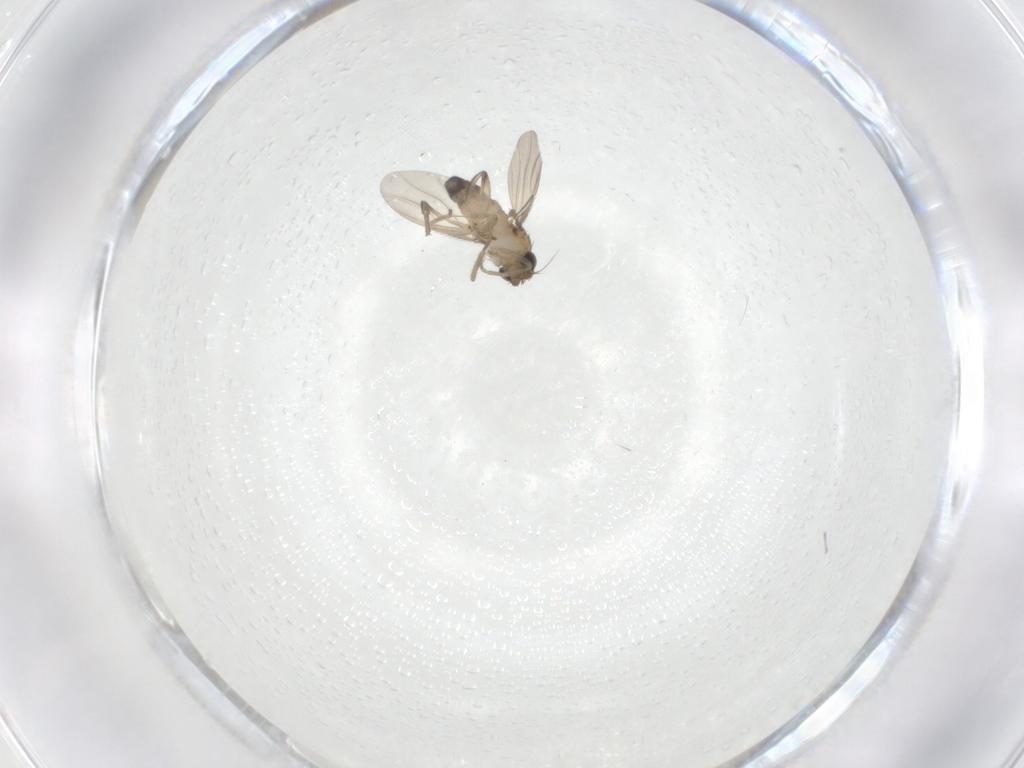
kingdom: Animalia
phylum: Arthropoda
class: Insecta
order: Diptera
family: Phoridae
